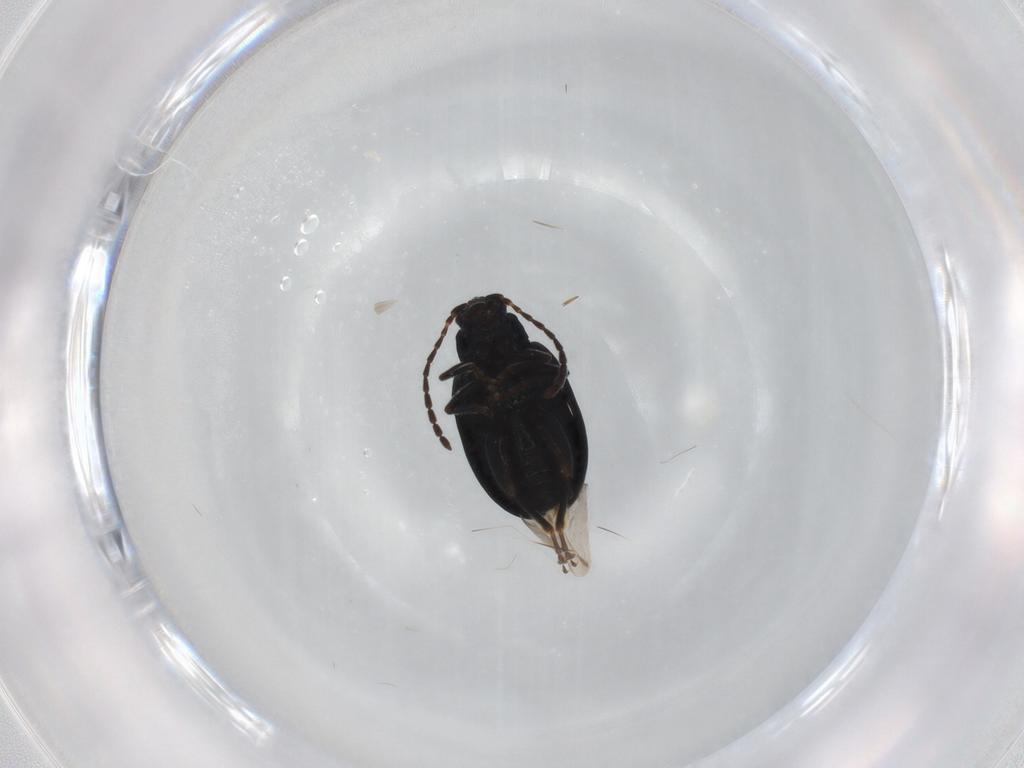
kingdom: Animalia
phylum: Arthropoda
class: Insecta
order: Coleoptera
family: Chrysomelidae
